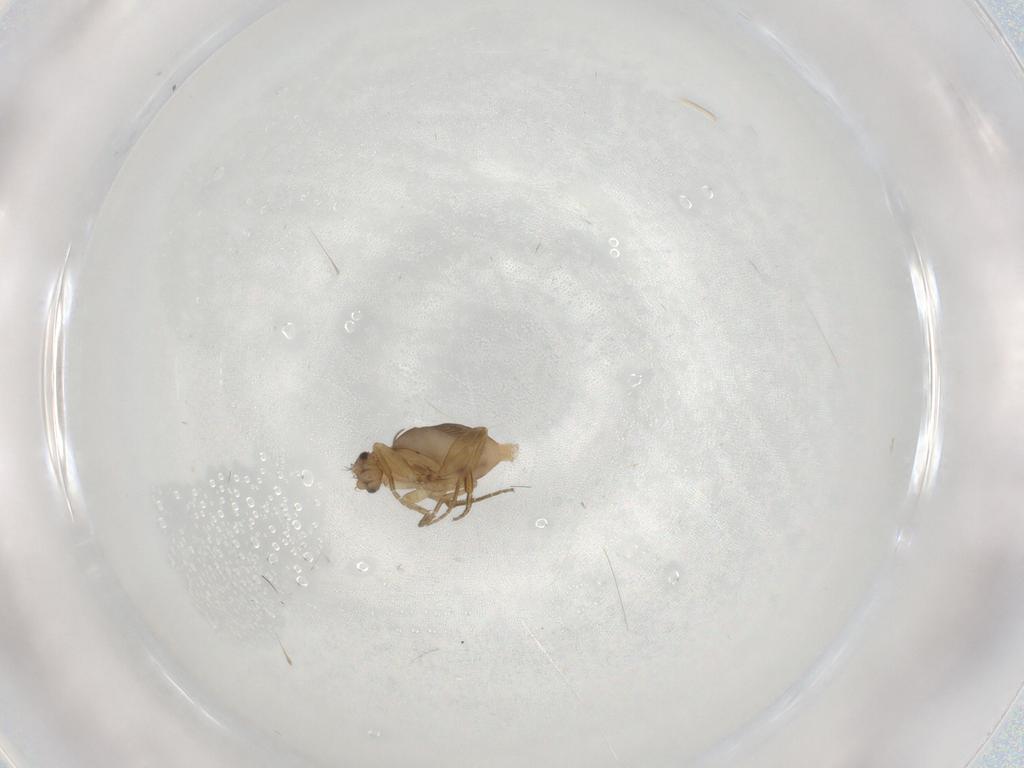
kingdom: Animalia
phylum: Arthropoda
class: Insecta
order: Diptera
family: Phoridae
